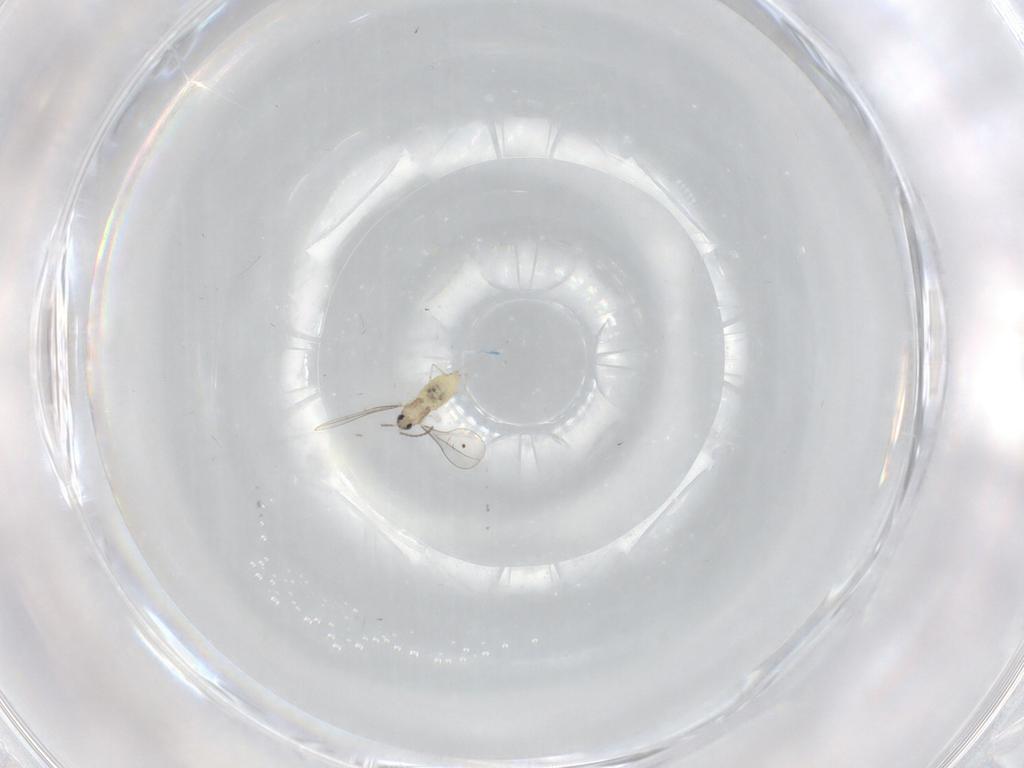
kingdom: Animalia
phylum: Arthropoda
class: Insecta
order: Diptera
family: Cecidomyiidae
